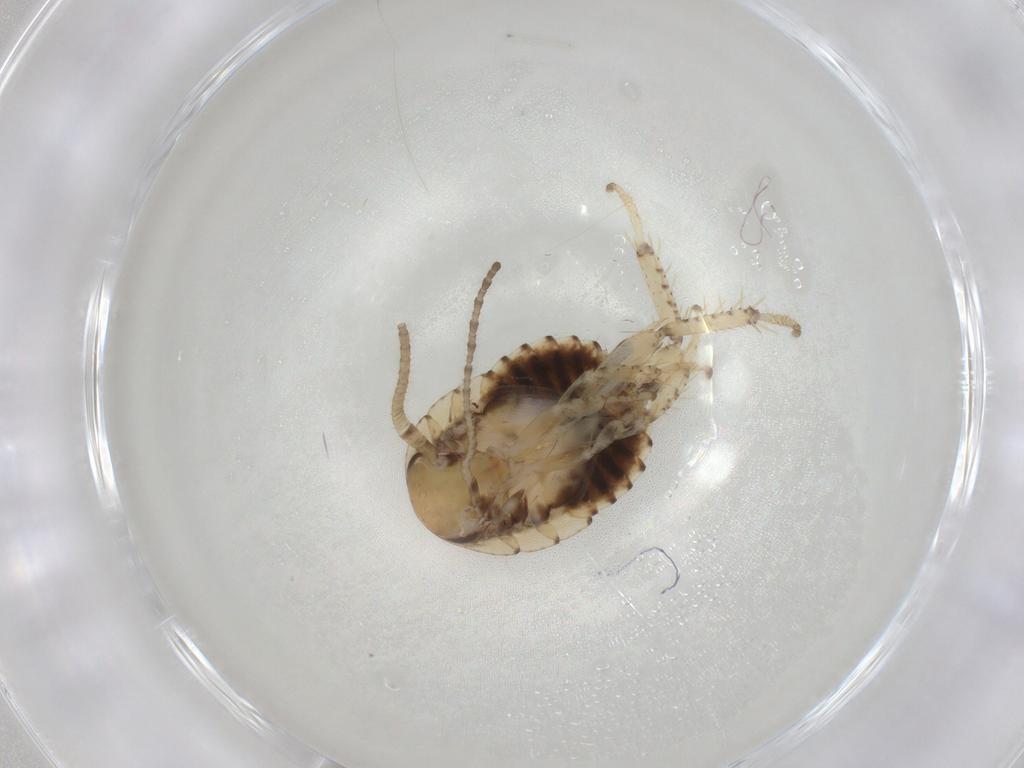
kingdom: Animalia
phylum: Arthropoda
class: Insecta
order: Blattodea
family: Blaberidae
